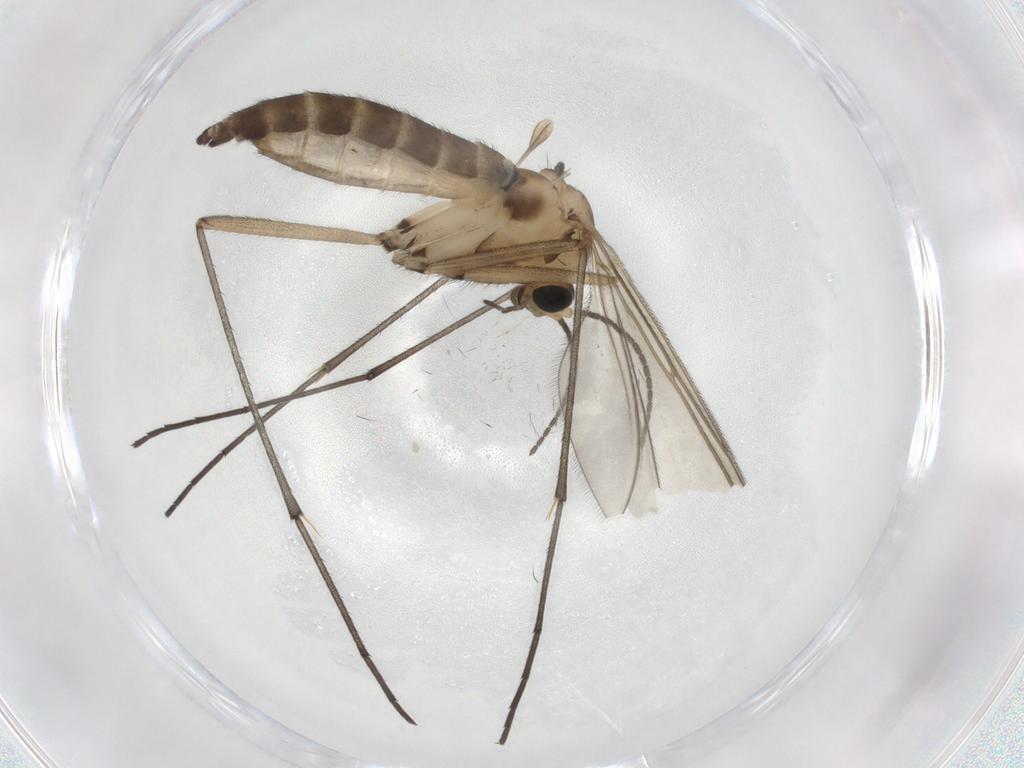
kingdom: Animalia
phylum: Arthropoda
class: Insecta
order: Diptera
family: Sciaridae
